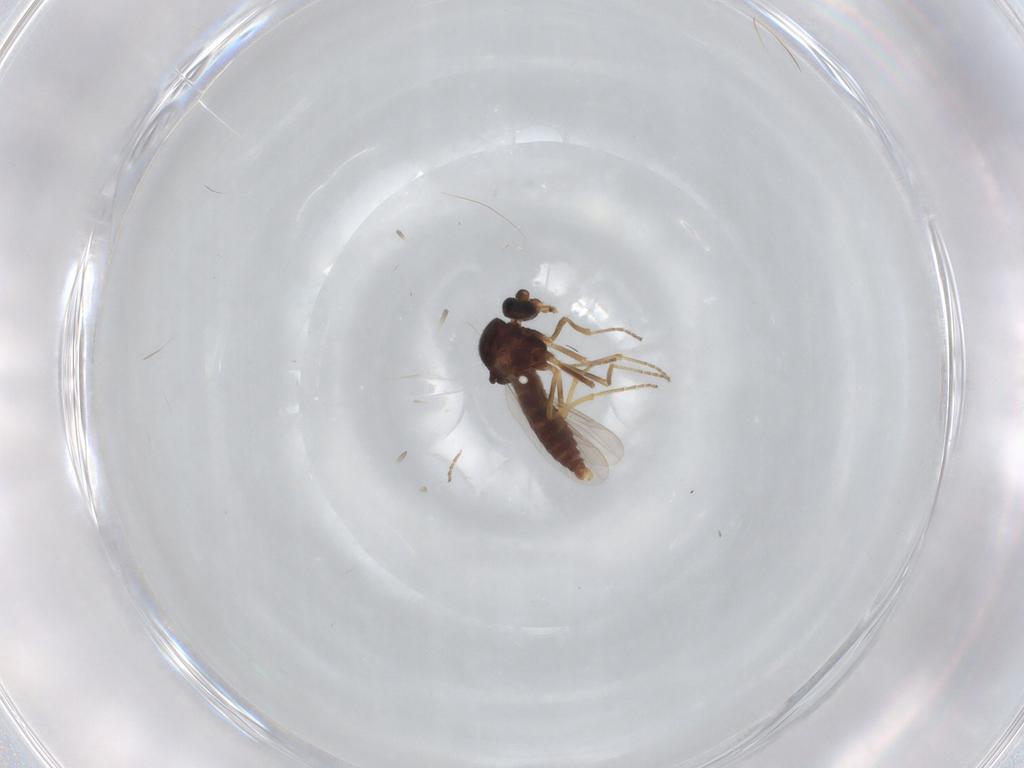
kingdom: Animalia
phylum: Arthropoda
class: Insecta
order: Diptera
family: Ceratopogonidae
